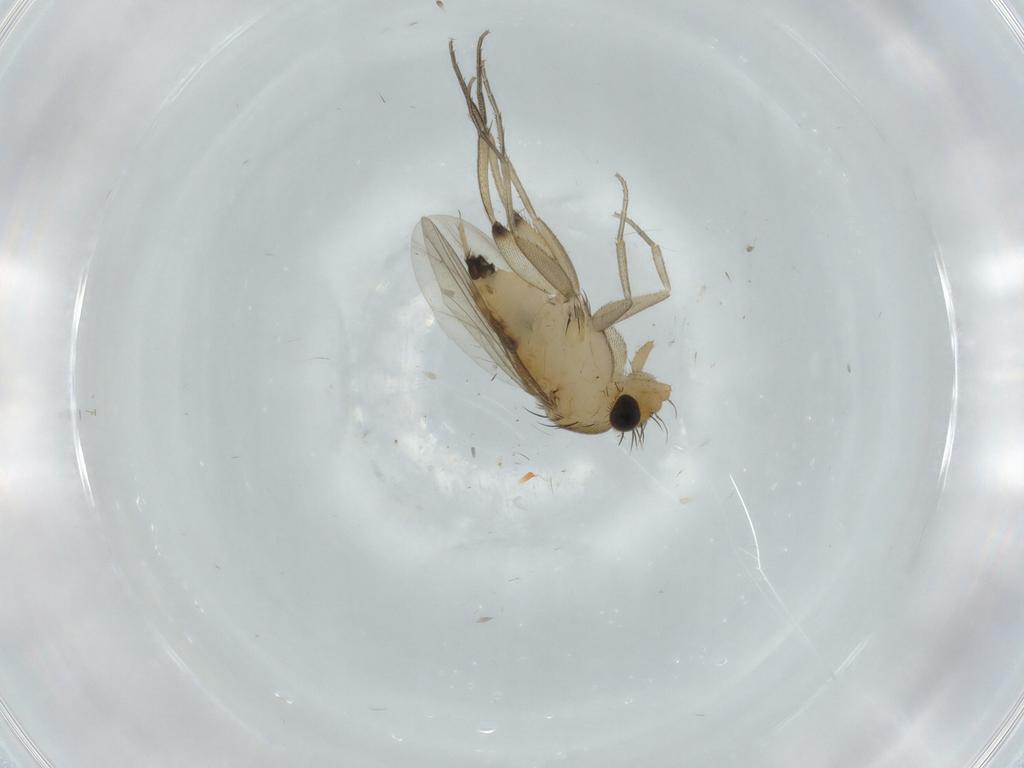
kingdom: Animalia
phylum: Arthropoda
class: Insecta
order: Diptera
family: Phoridae
